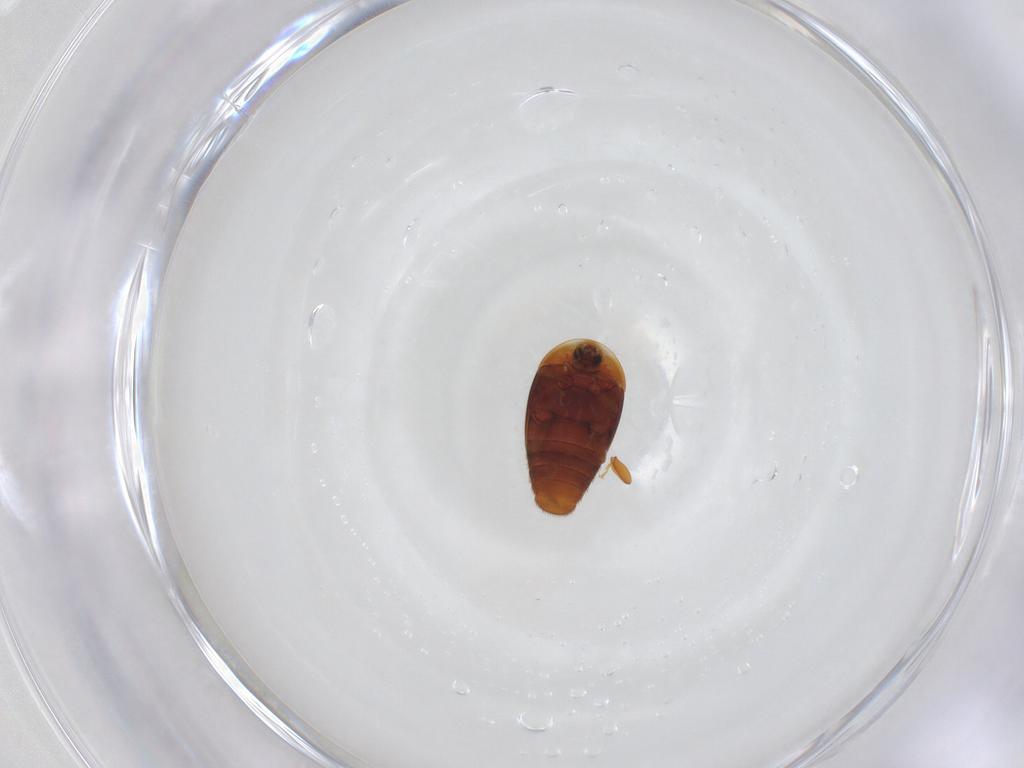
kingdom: Animalia
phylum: Arthropoda
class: Insecta
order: Coleoptera
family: Corylophidae
